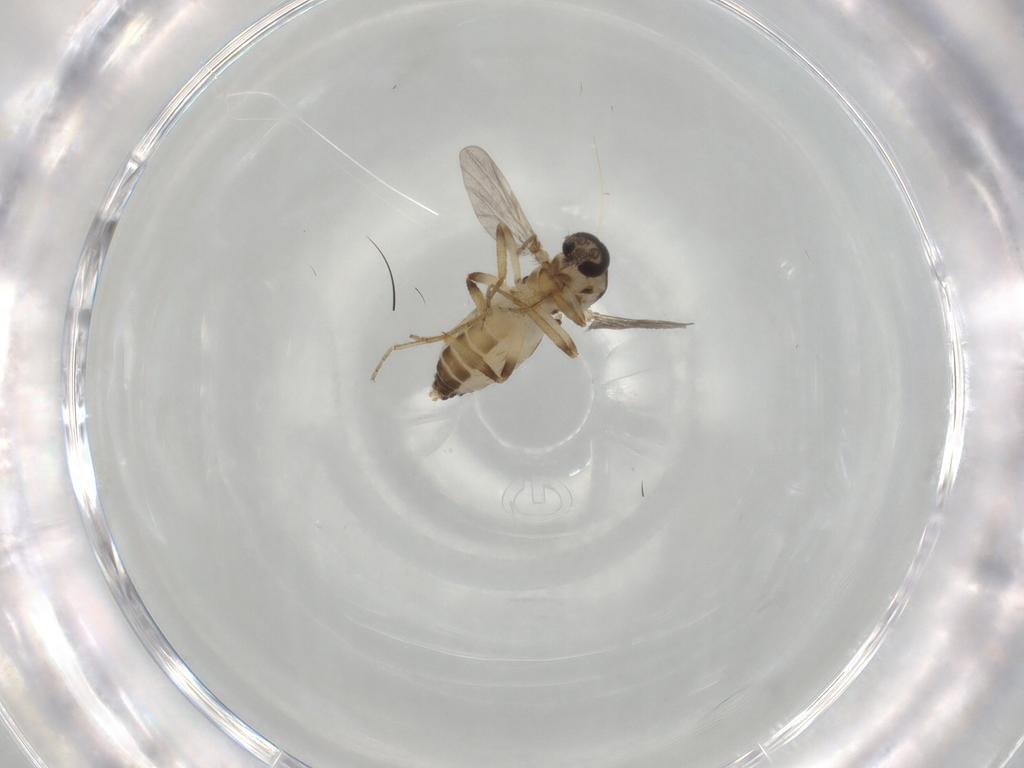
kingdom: Animalia
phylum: Arthropoda
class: Insecta
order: Diptera
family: Ceratopogonidae
